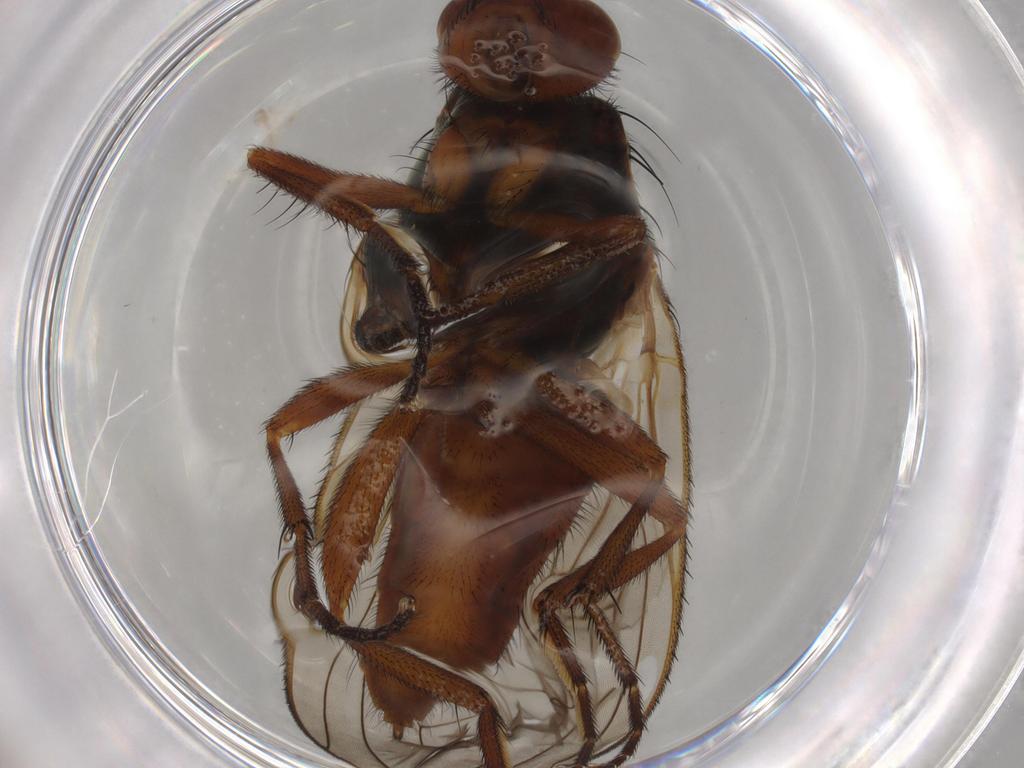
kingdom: Animalia
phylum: Arthropoda
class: Insecta
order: Diptera
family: Heleomyzidae
